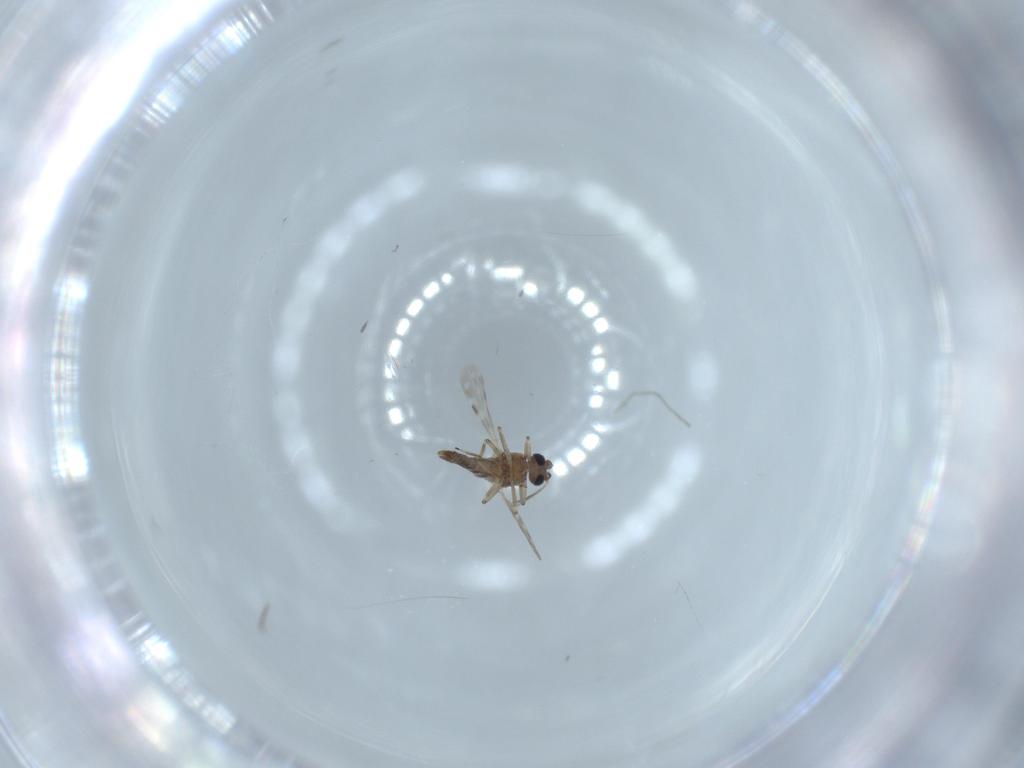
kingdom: Animalia
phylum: Arthropoda
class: Insecta
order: Diptera
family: Ceratopogonidae
